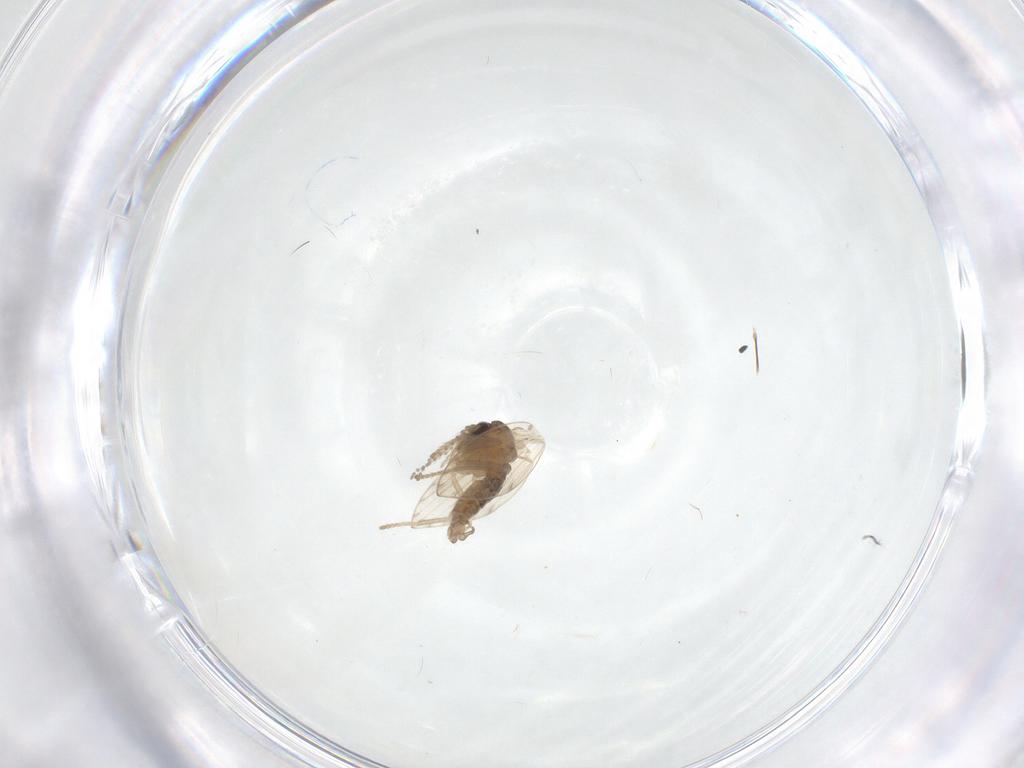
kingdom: Animalia
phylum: Arthropoda
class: Insecta
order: Diptera
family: Psychodidae
